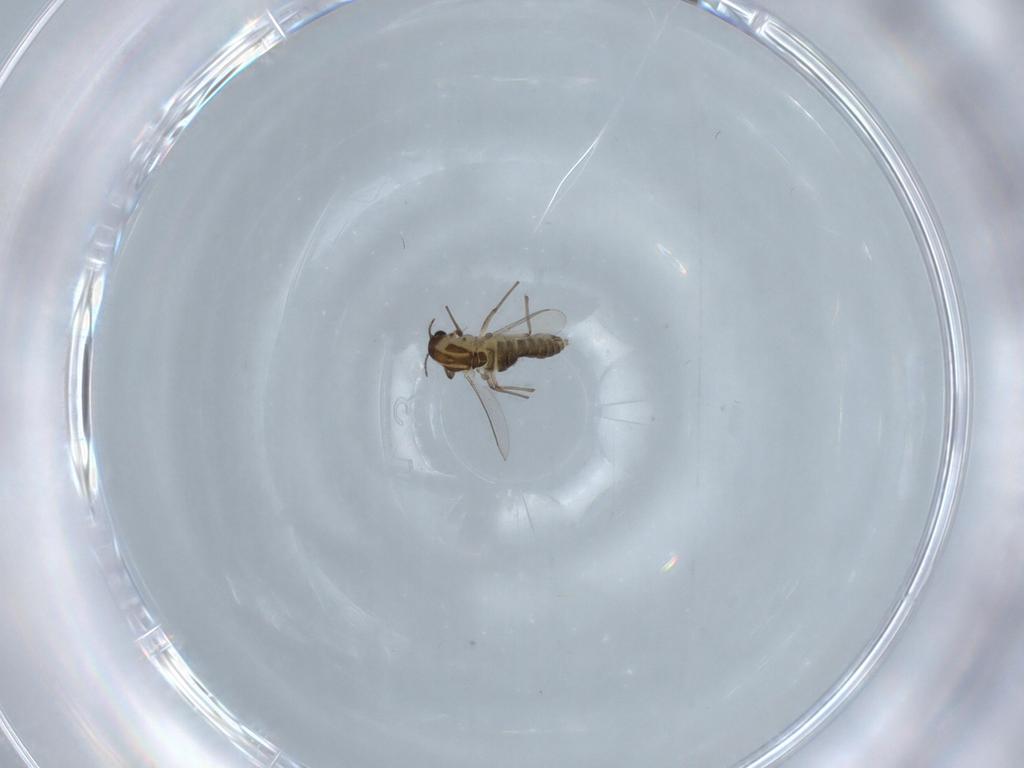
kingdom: Animalia
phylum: Arthropoda
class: Insecta
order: Diptera
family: Chironomidae
